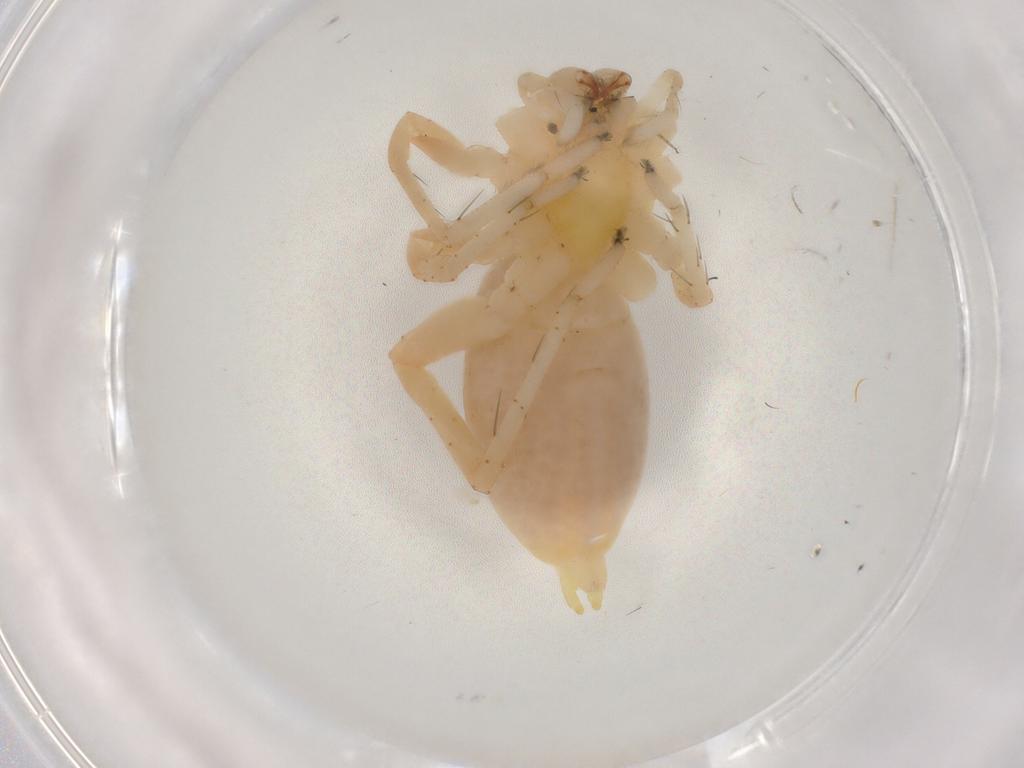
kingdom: Animalia
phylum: Arthropoda
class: Arachnida
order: Araneae
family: Anyphaenidae
